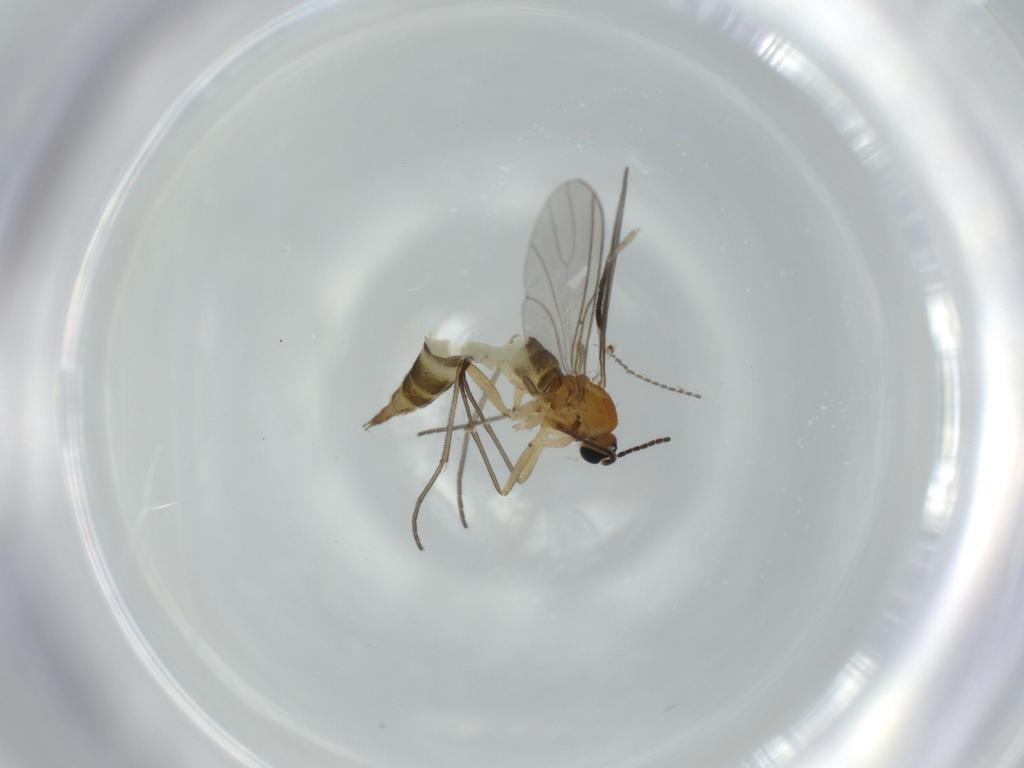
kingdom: Animalia
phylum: Arthropoda
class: Insecta
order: Diptera
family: Sciaridae
